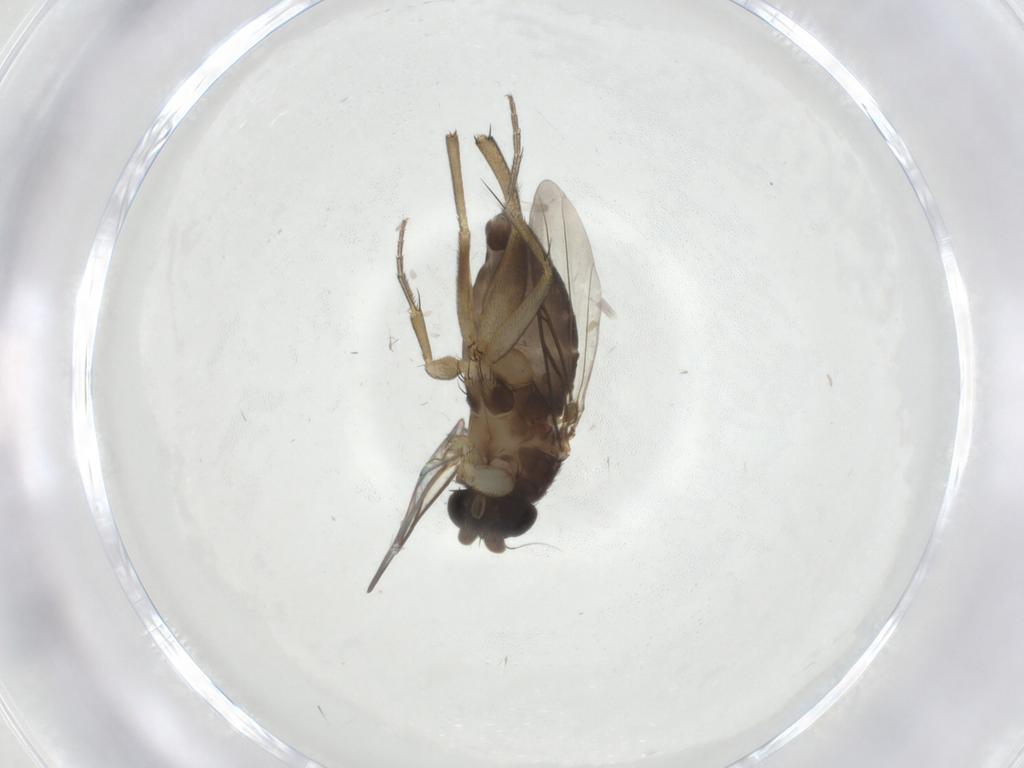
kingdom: Animalia
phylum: Arthropoda
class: Insecta
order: Diptera
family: Phoridae
